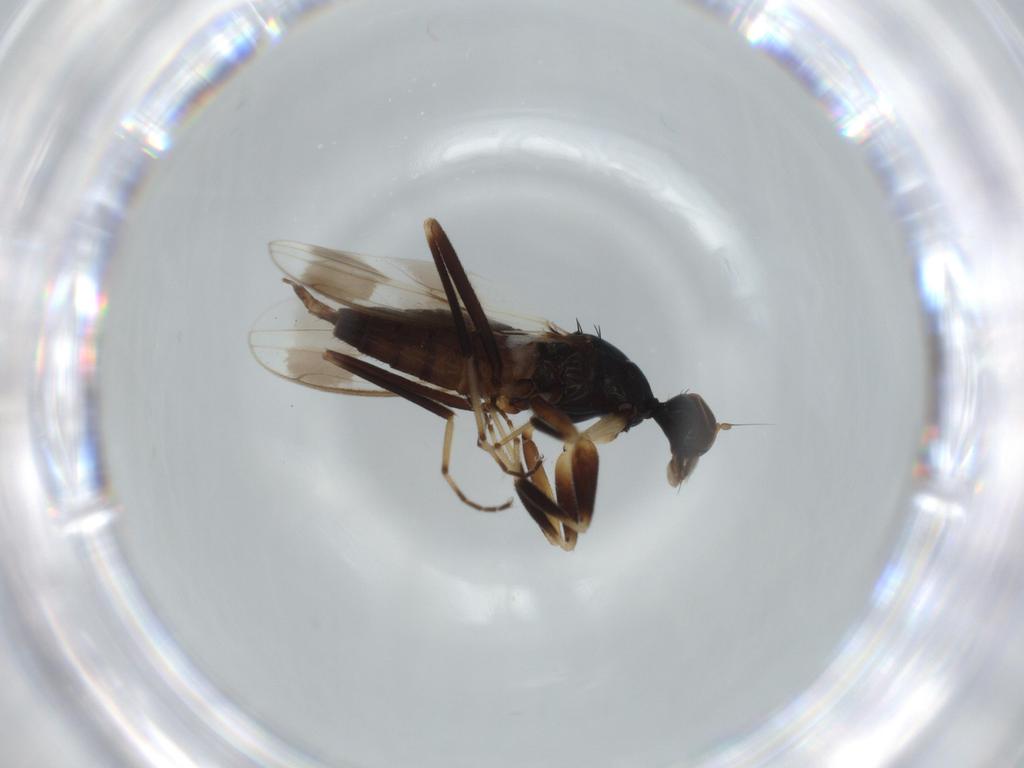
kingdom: Animalia
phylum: Arthropoda
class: Insecta
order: Diptera
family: Hybotidae
